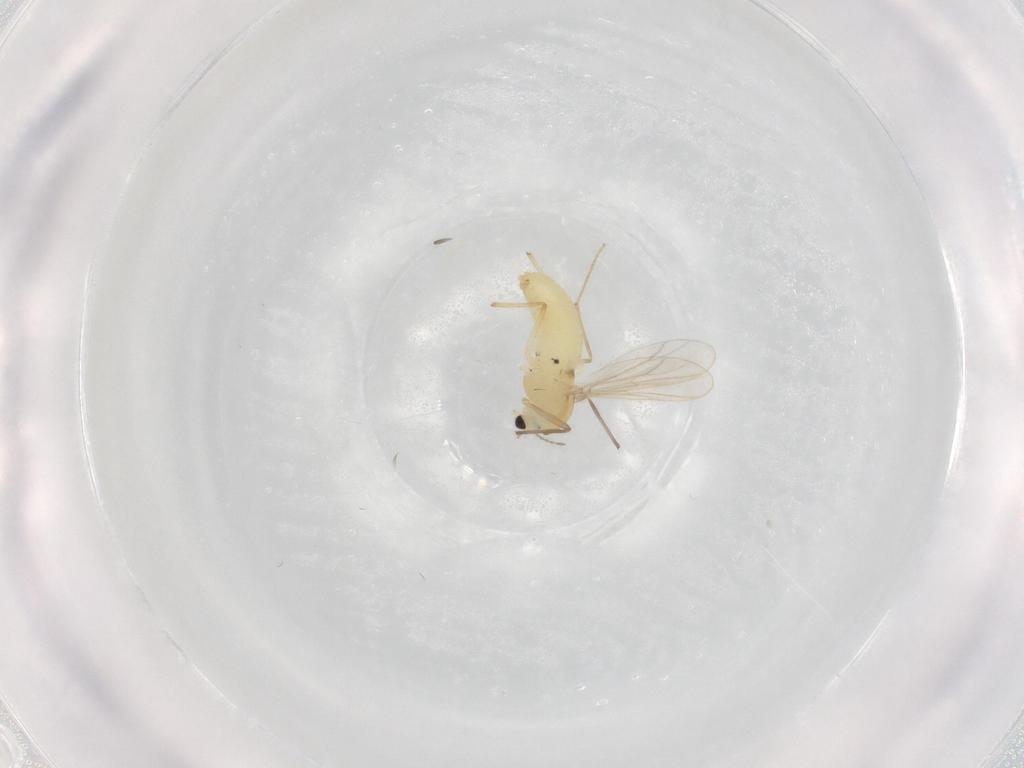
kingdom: Animalia
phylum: Arthropoda
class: Insecta
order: Diptera
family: Chironomidae
